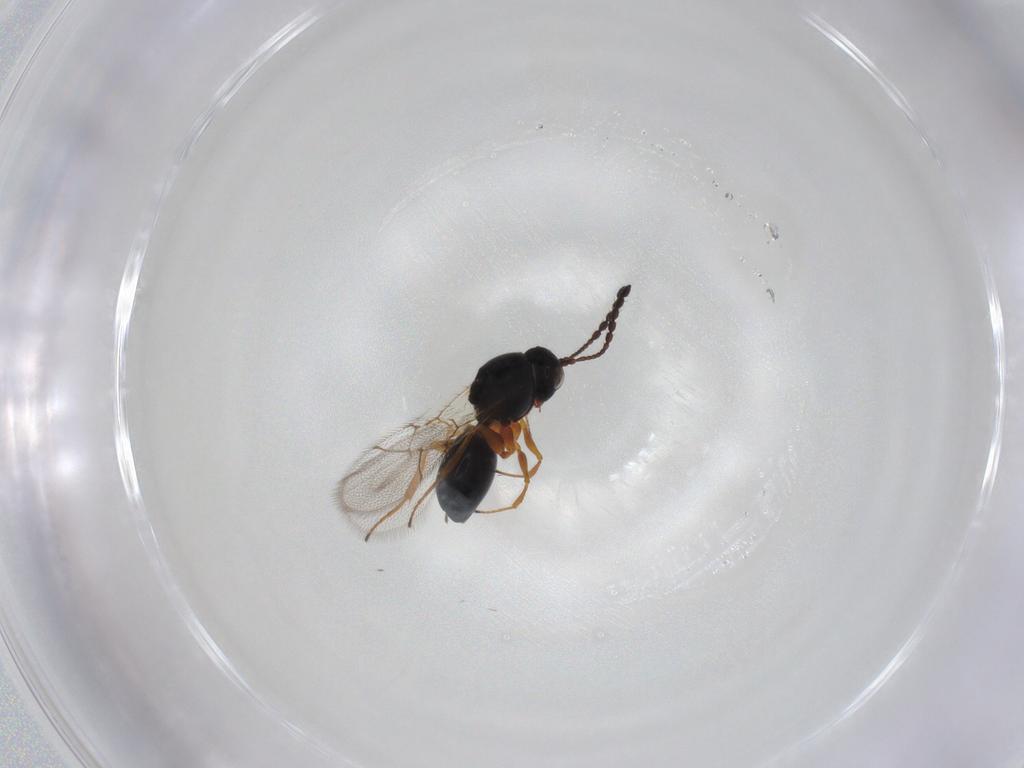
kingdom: Animalia
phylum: Arthropoda
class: Insecta
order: Hymenoptera
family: Figitidae
